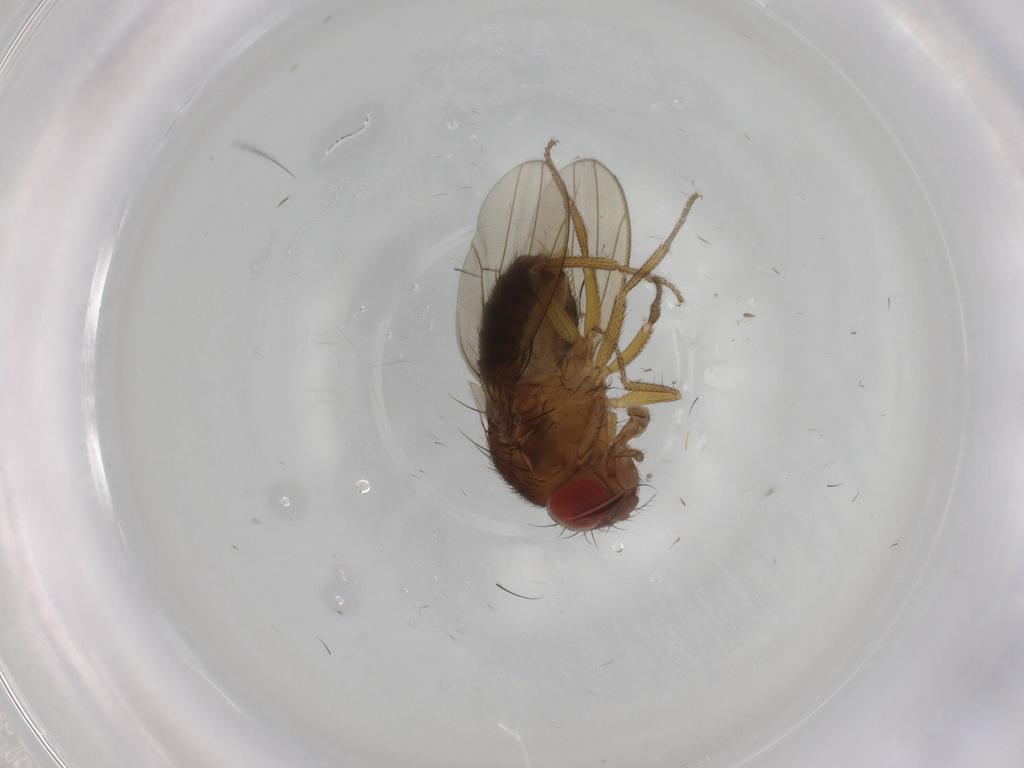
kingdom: Animalia
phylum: Arthropoda
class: Insecta
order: Diptera
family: Drosophilidae
